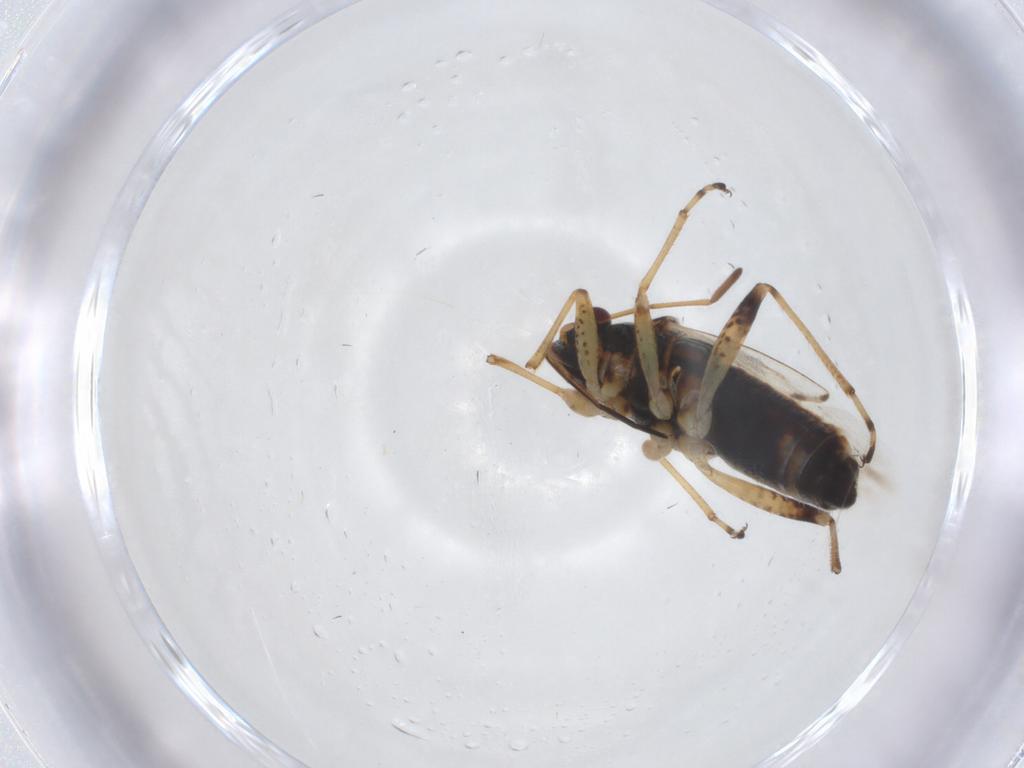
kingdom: Animalia
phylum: Arthropoda
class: Insecta
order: Hemiptera
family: Lygaeidae
